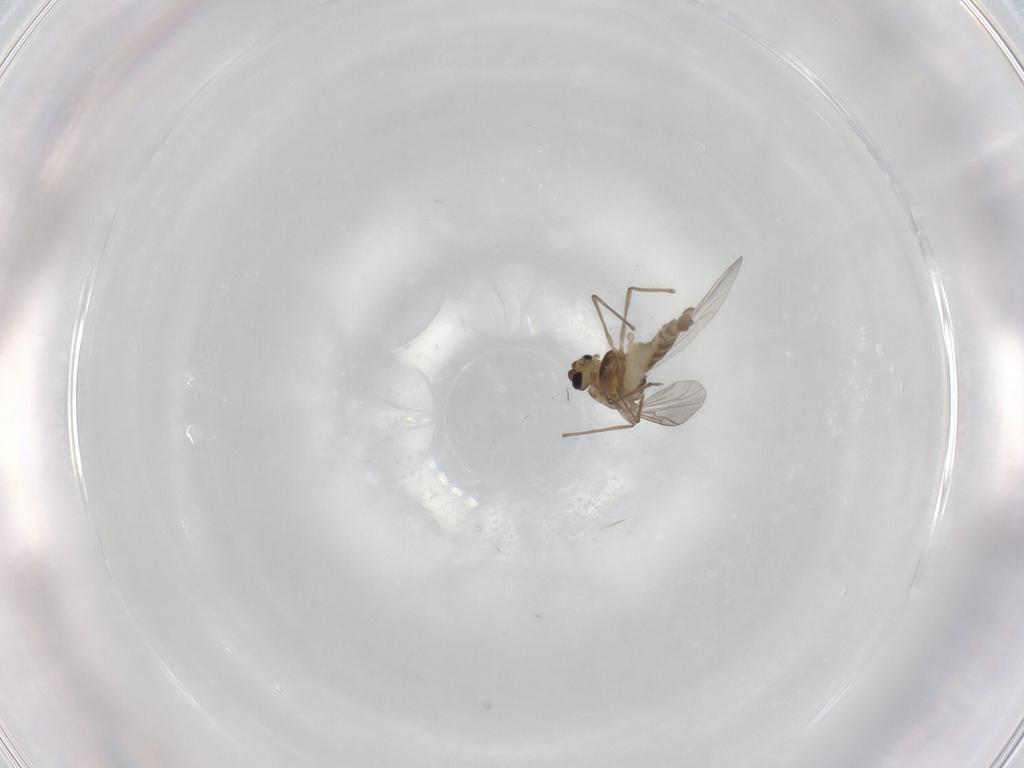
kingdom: Animalia
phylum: Arthropoda
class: Insecta
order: Diptera
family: Chironomidae
